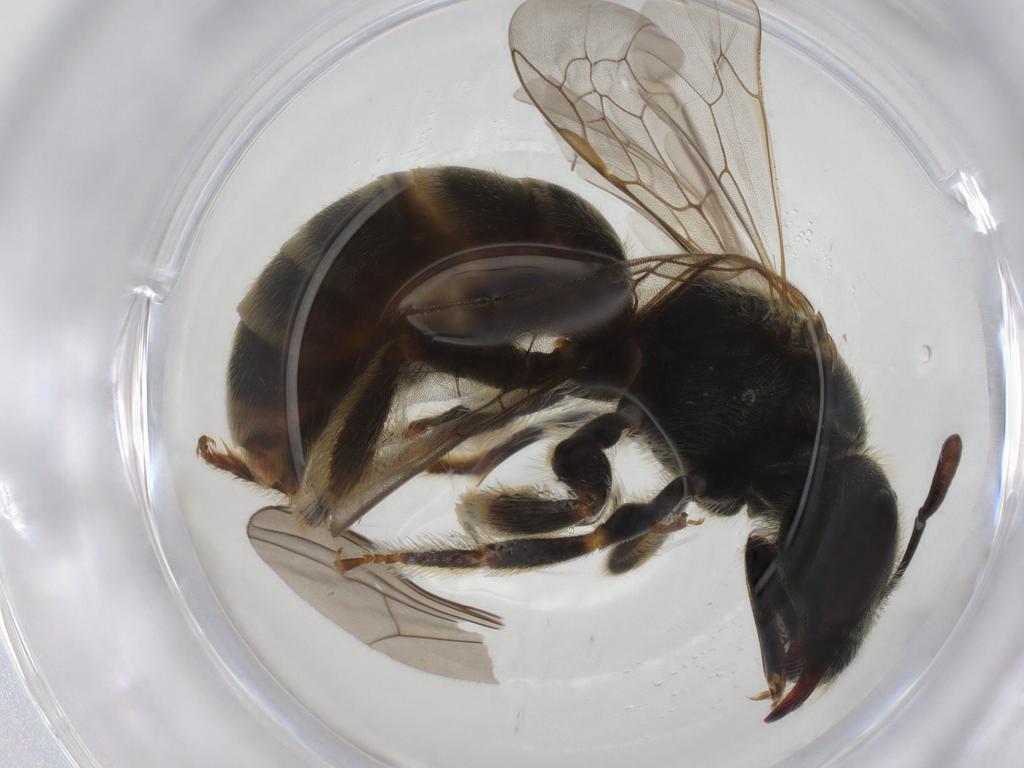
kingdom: Animalia
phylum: Arthropoda
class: Insecta
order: Hymenoptera
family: Halictidae
